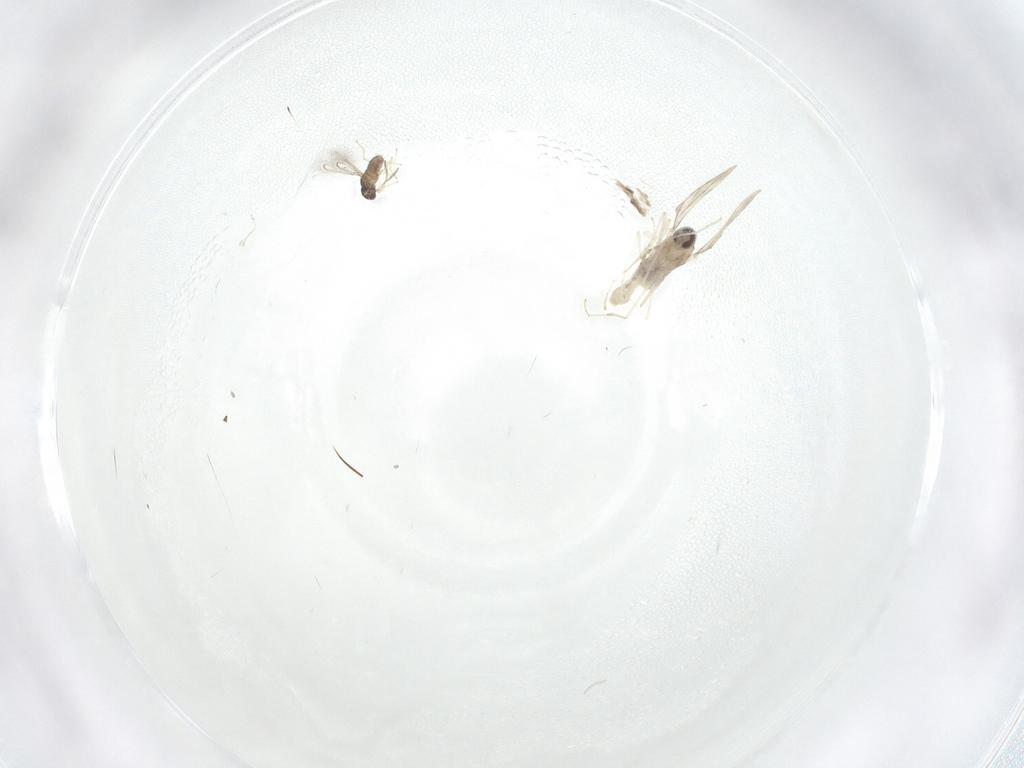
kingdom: Animalia
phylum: Arthropoda
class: Insecta
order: Diptera
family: Cecidomyiidae
